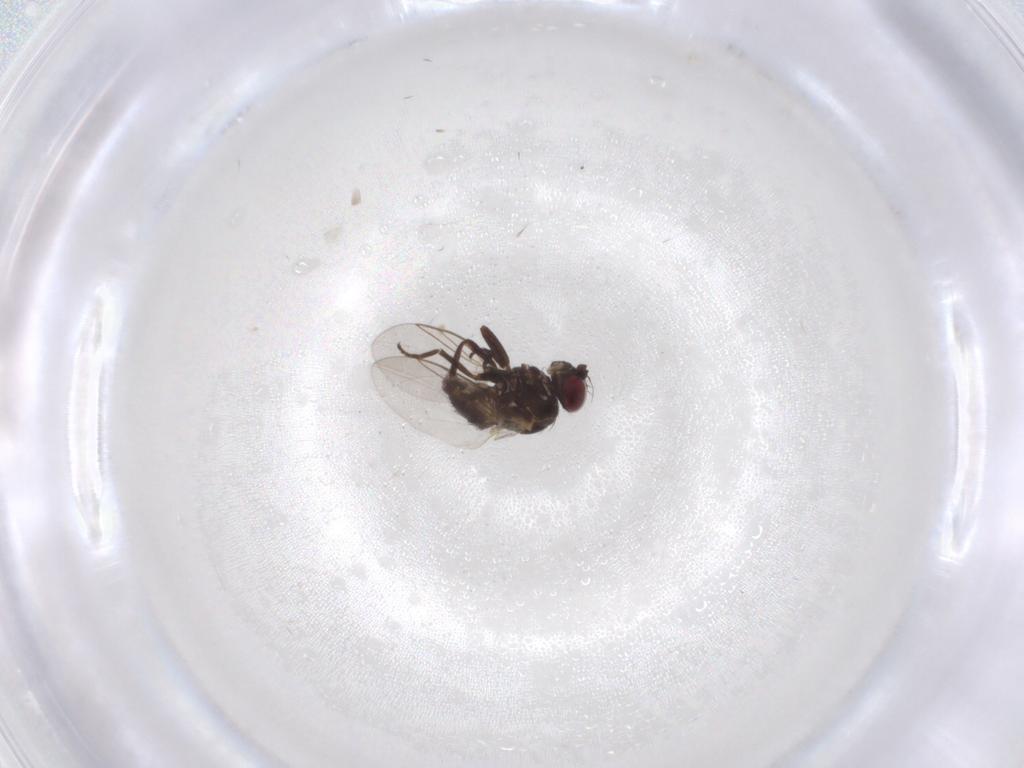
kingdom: Animalia
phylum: Arthropoda
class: Insecta
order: Diptera
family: Agromyzidae
